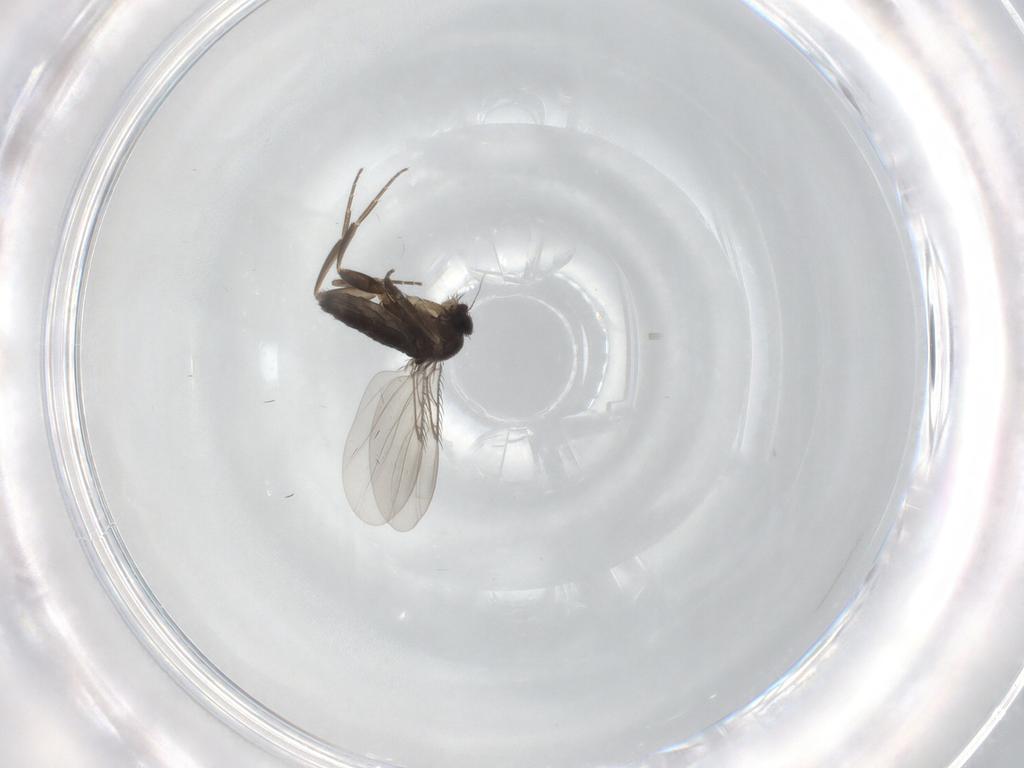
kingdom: Animalia
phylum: Arthropoda
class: Insecta
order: Diptera
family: Phoridae
